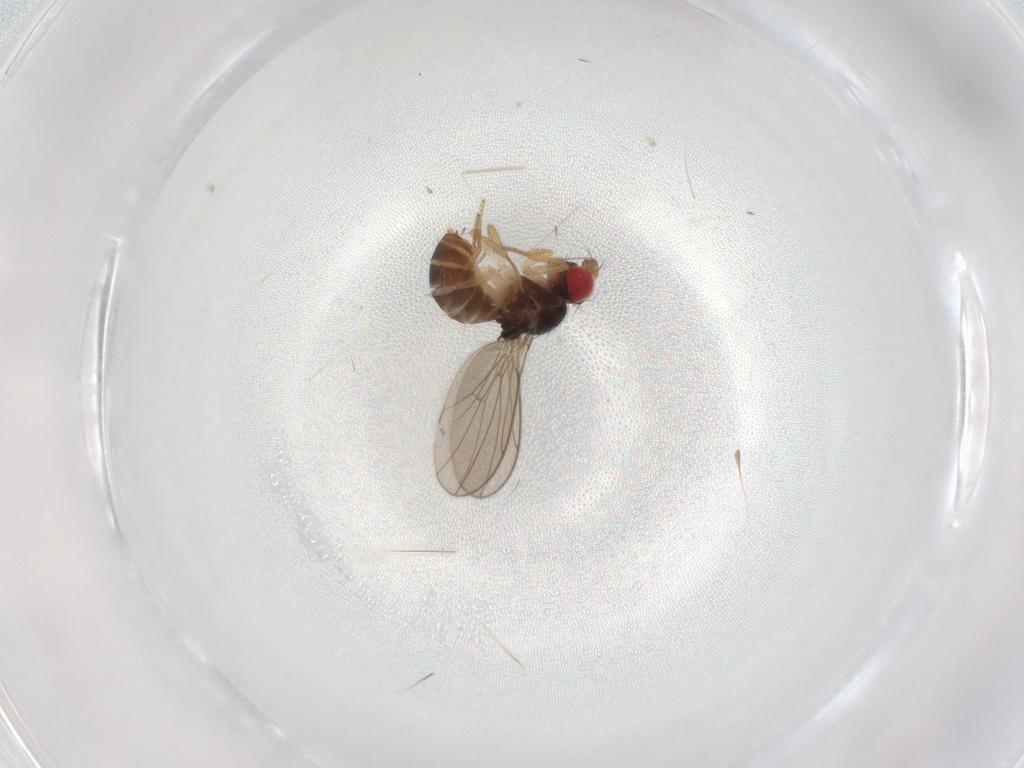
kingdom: Animalia
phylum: Arthropoda
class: Insecta
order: Diptera
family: Drosophilidae
